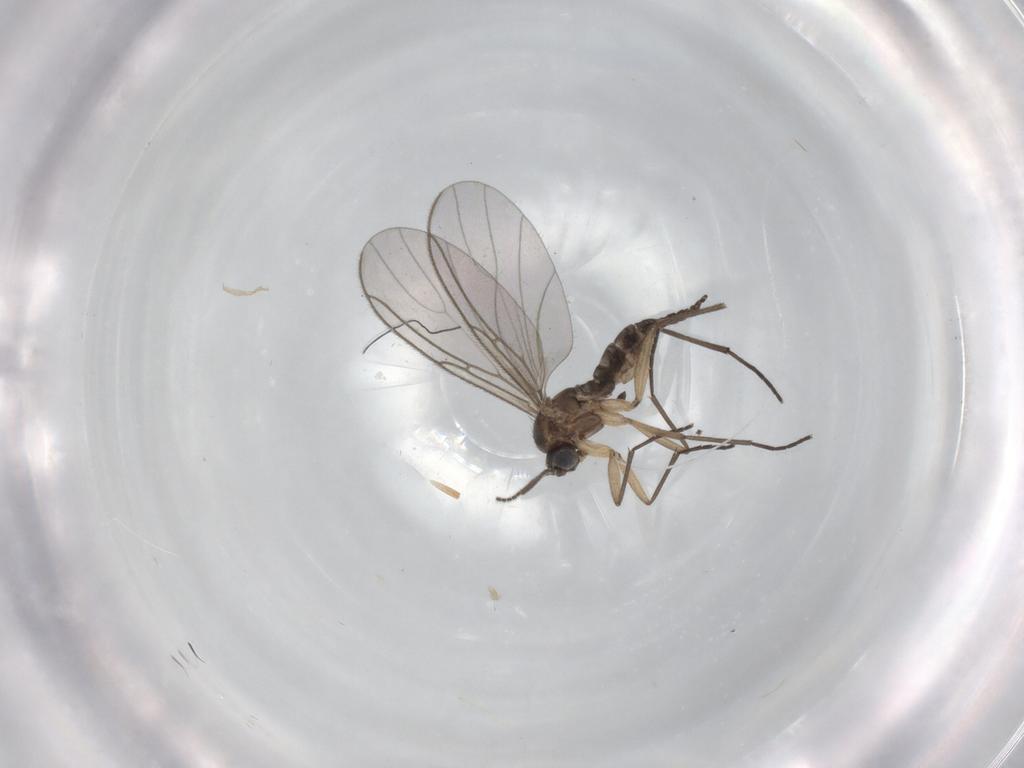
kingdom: Animalia
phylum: Arthropoda
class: Insecta
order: Diptera
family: Sciaridae
